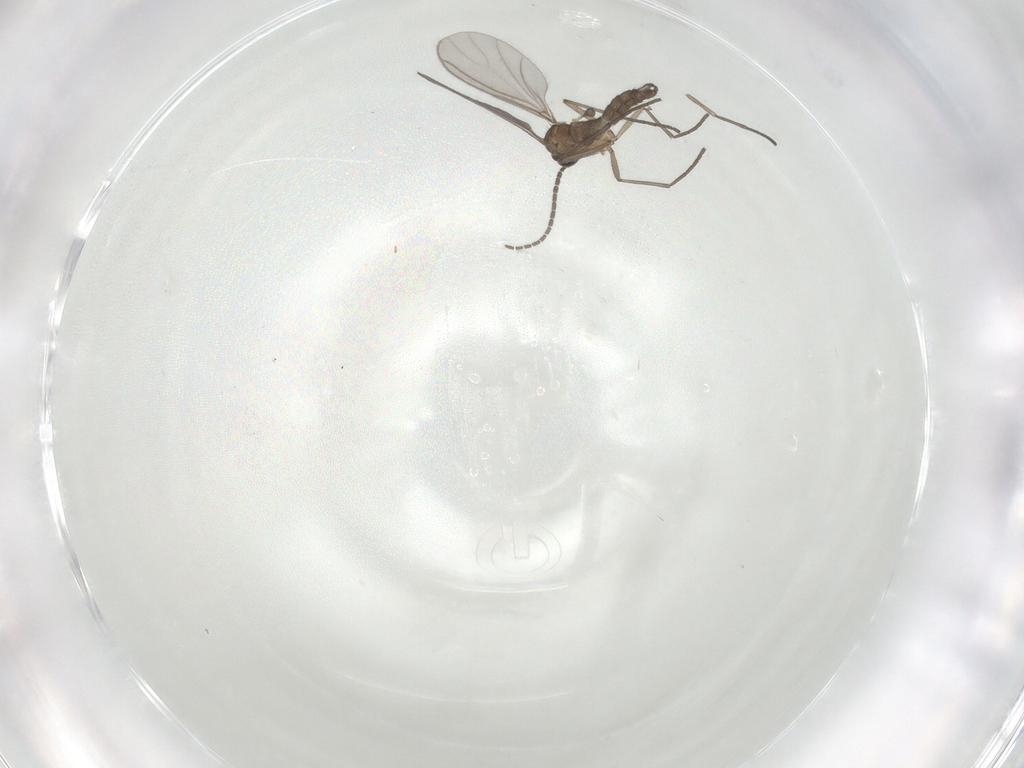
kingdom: Animalia
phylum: Arthropoda
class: Insecta
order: Diptera
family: Sciaridae
